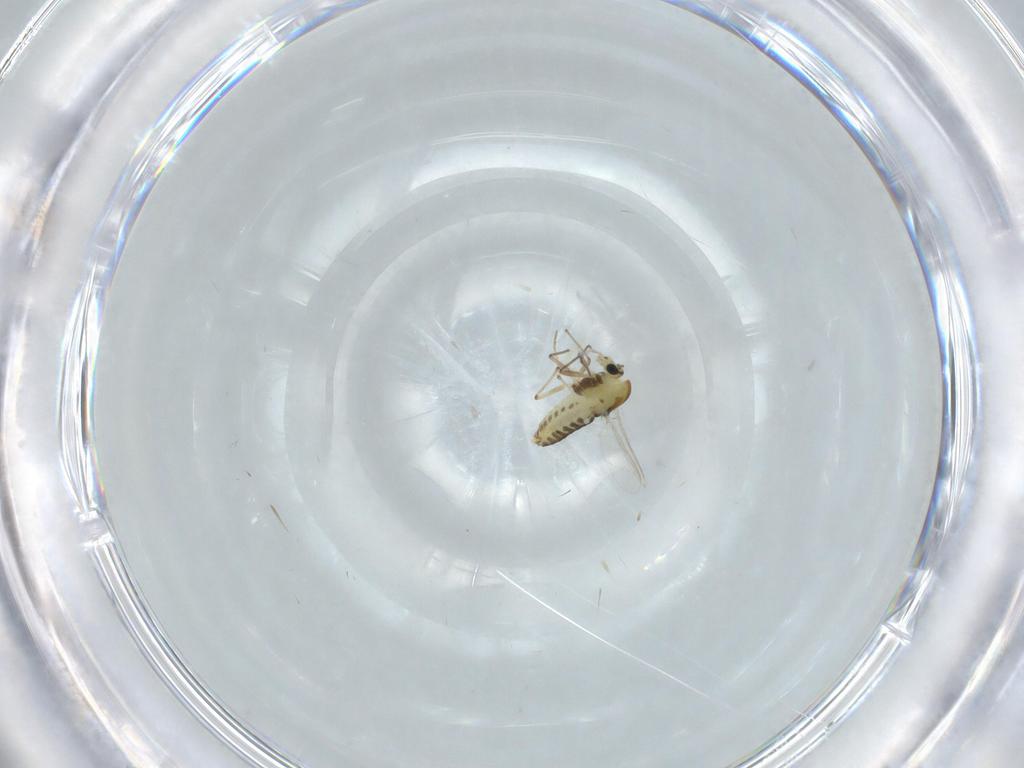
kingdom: Animalia
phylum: Arthropoda
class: Insecta
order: Diptera
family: Chironomidae
